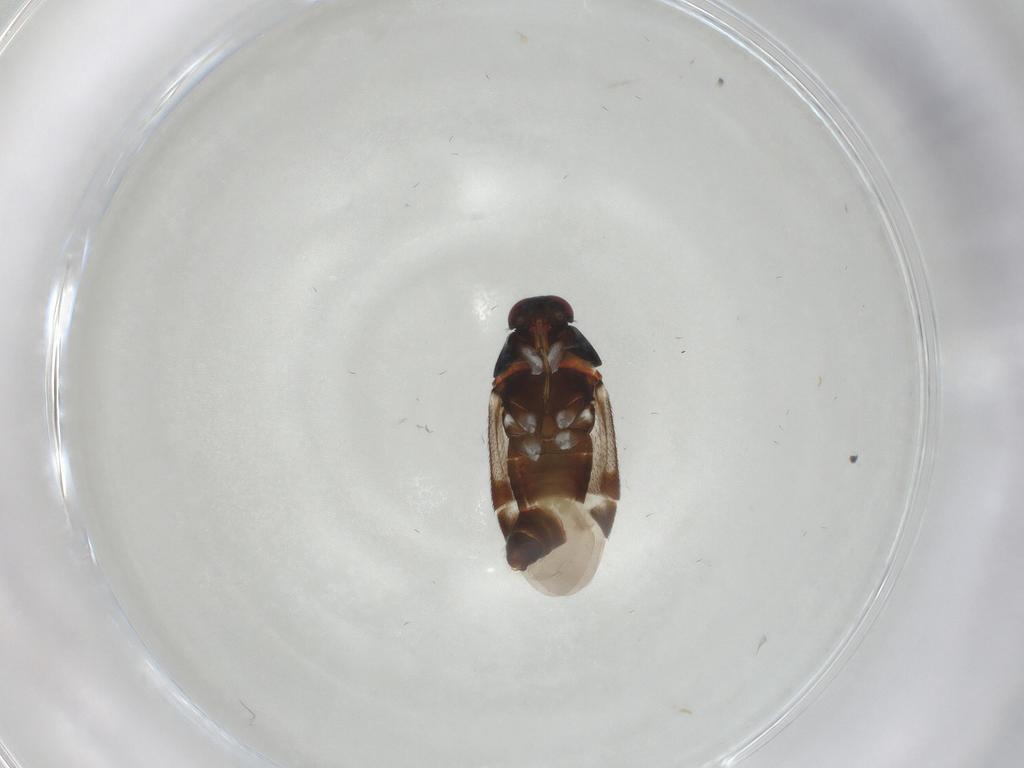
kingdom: Animalia
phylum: Arthropoda
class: Insecta
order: Hemiptera
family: Miridae
